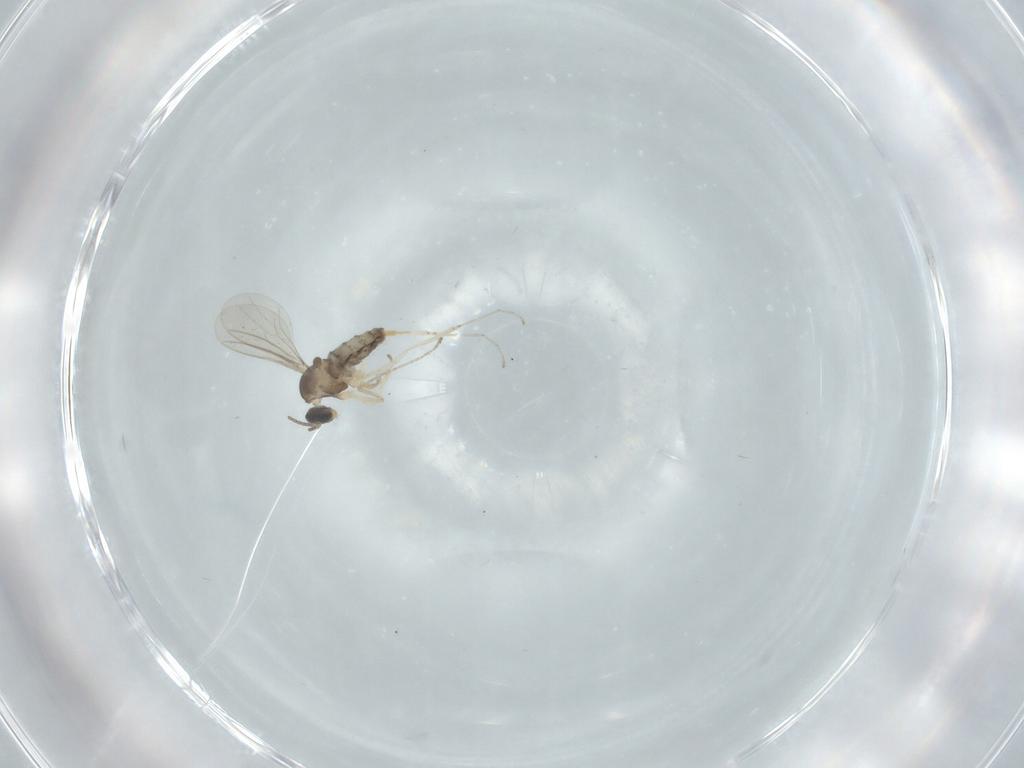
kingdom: Animalia
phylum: Arthropoda
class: Insecta
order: Diptera
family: Cecidomyiidae
